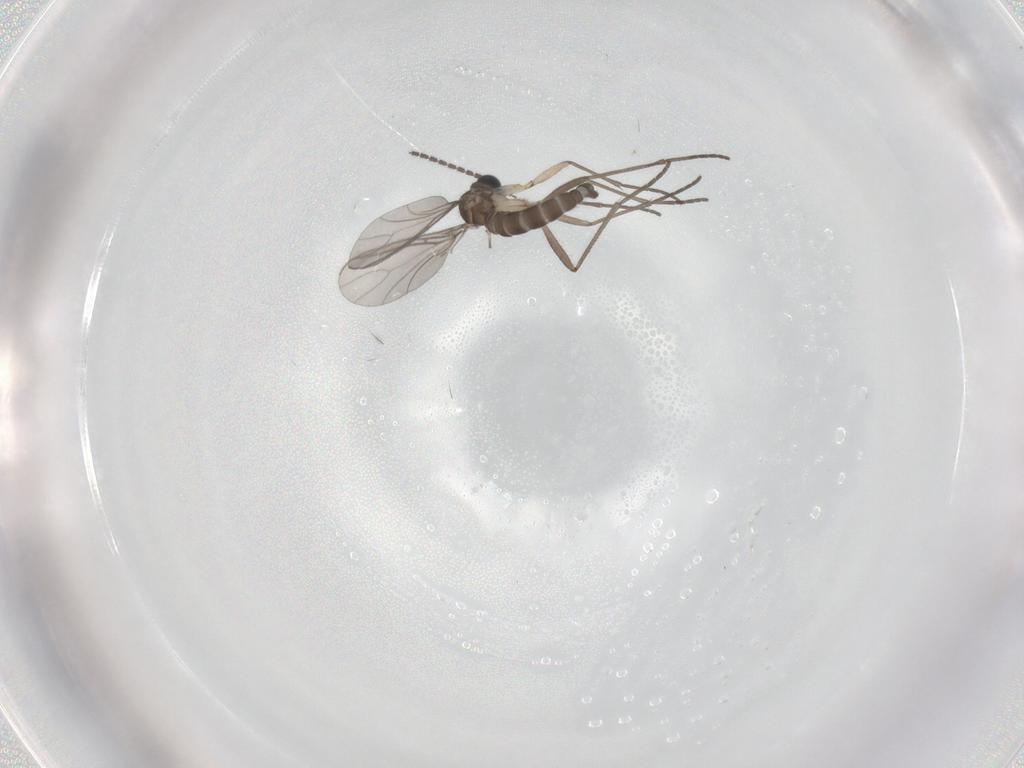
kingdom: Animalia
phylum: Arthropoda
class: Insecta
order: Diptera
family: Sciaridae
